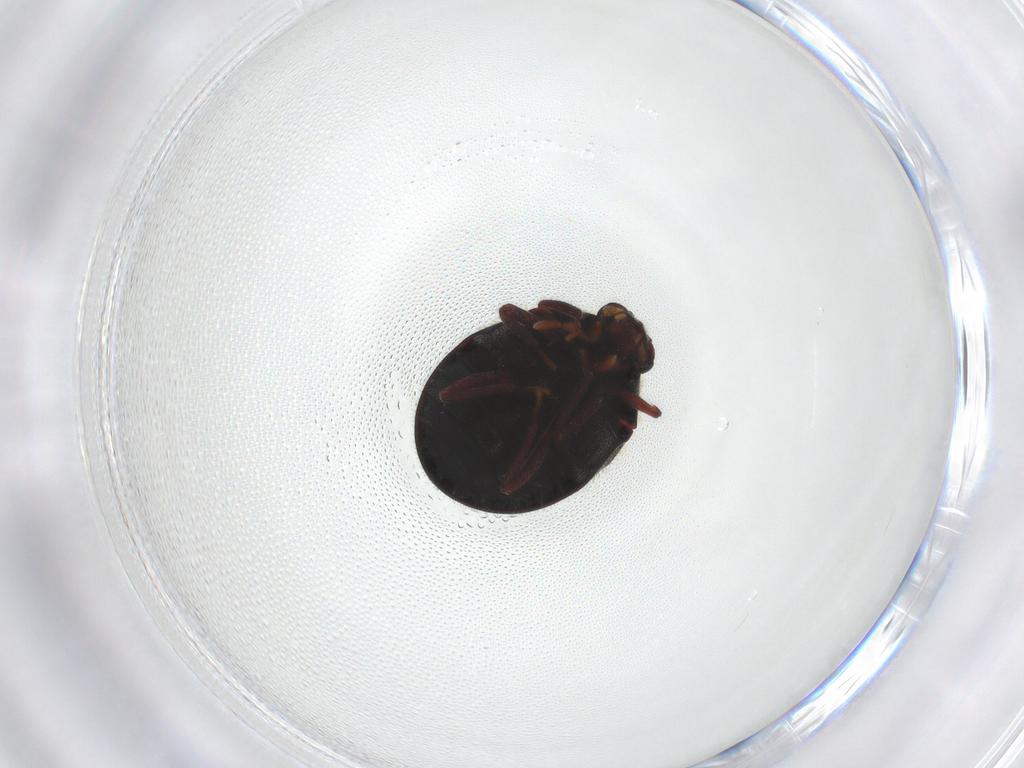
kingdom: Animalia
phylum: Arthropoda
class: Insecta
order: Coleoptera
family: Ptinidae
